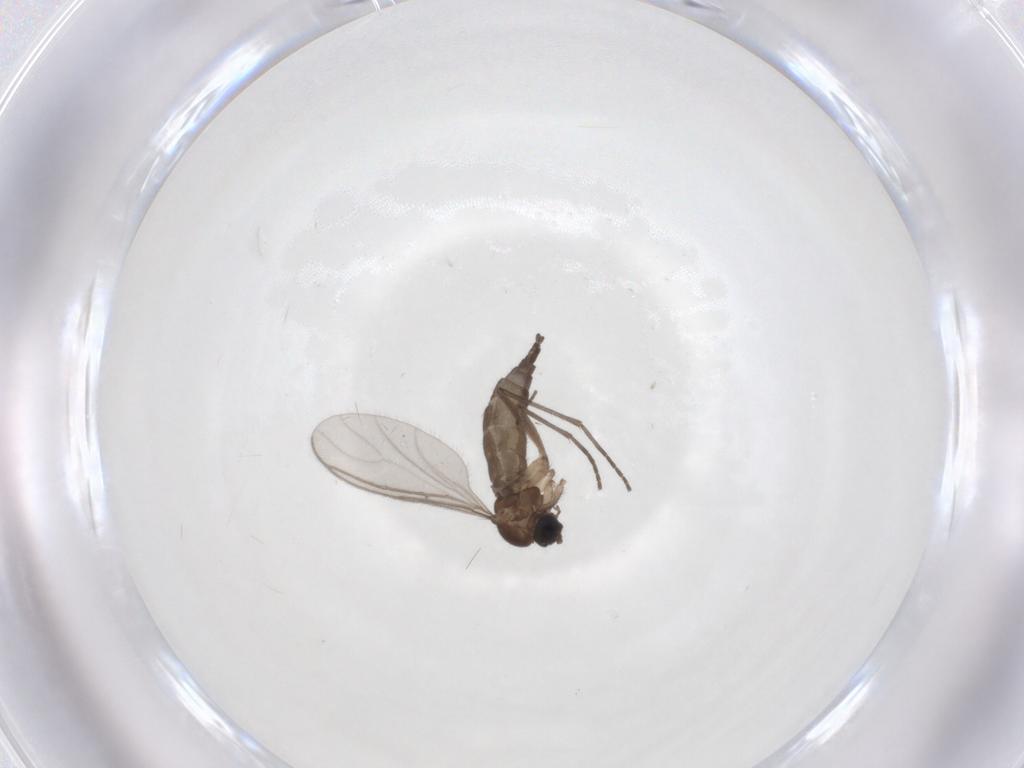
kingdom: Animalia
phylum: Arthropoda
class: Insecta
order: Diptera
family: Sciaridae
